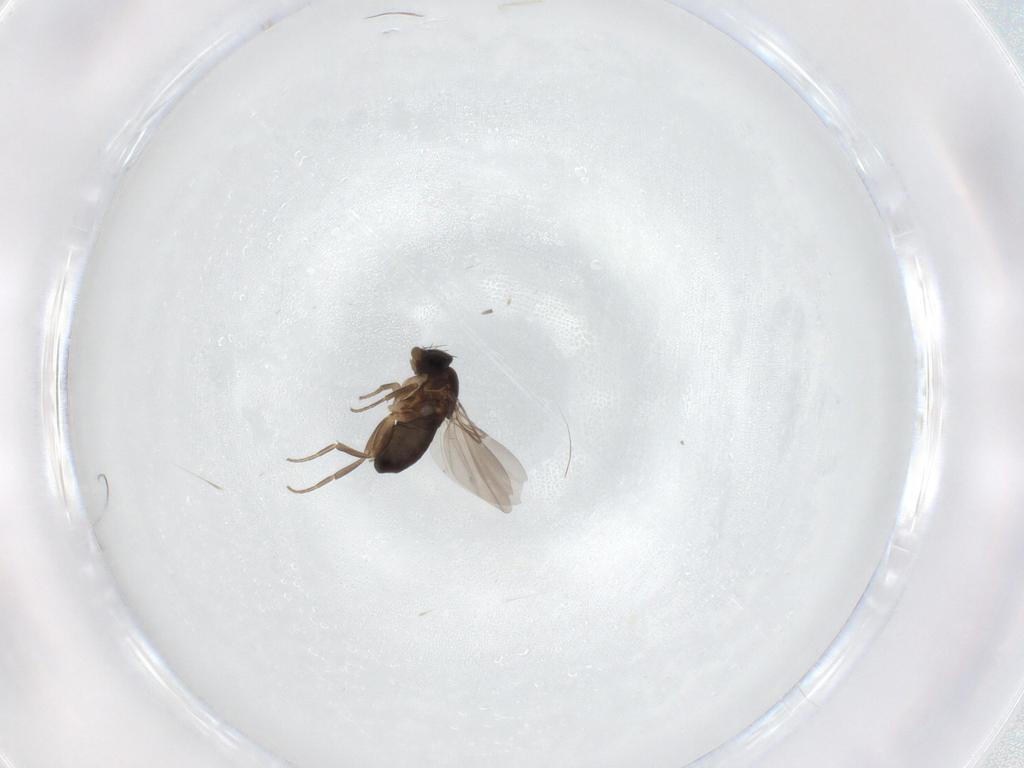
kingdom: Animalia
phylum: Arthropoda
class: Insecta
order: Diptera
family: Phoridae
